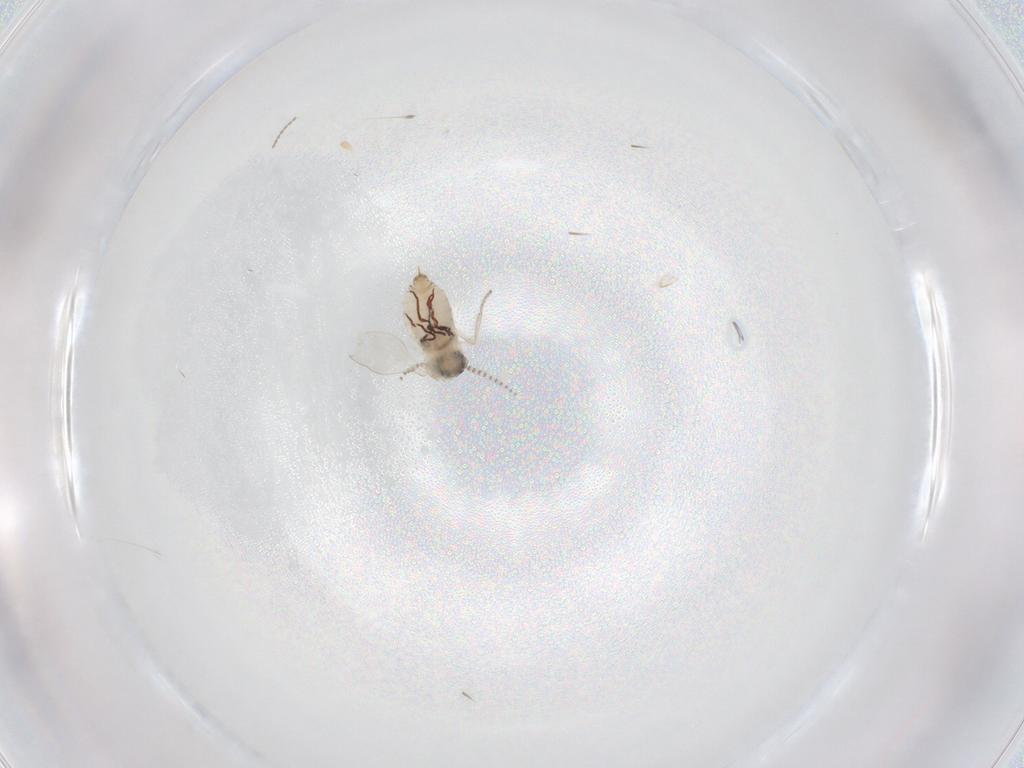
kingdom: Animalia
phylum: Arthropoda
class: Insecta
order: Diptera
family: Psychodidae
